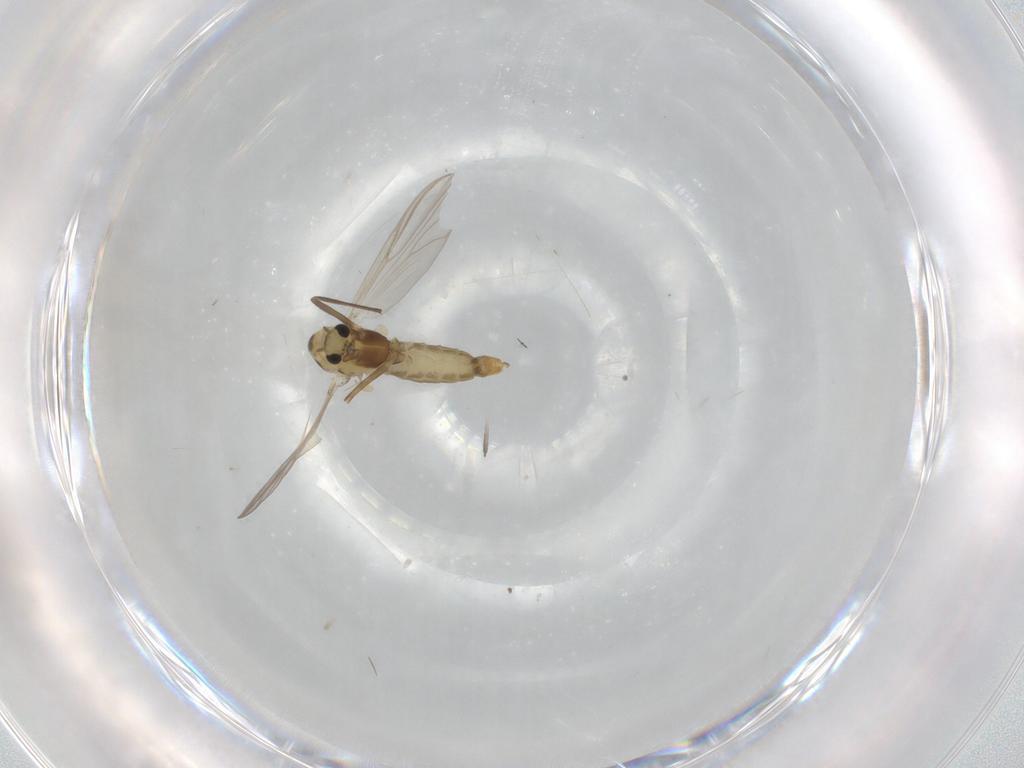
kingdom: Animalia
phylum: Arthropoda
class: Insecta
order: Diptera
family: Chironomidae
